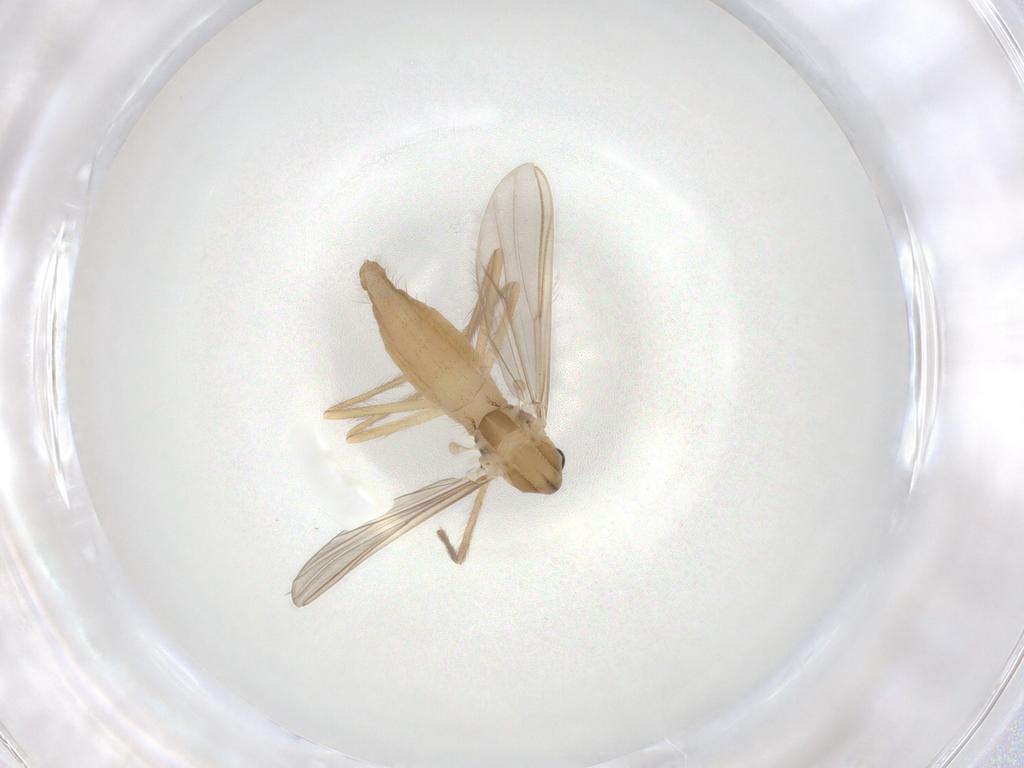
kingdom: Animalia
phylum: Arthropoda
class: Insecta
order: Diptera
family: Chironomidae
